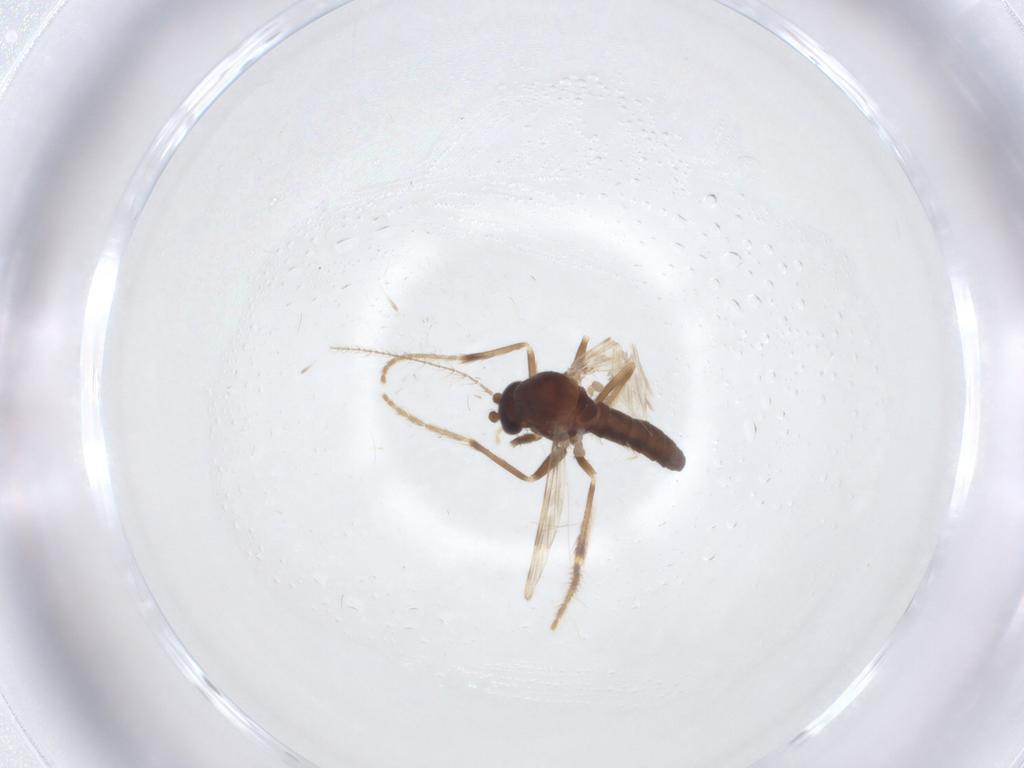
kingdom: Animalia
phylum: Arthropoda
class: Insecta
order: Diptera
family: Corethrellidae
